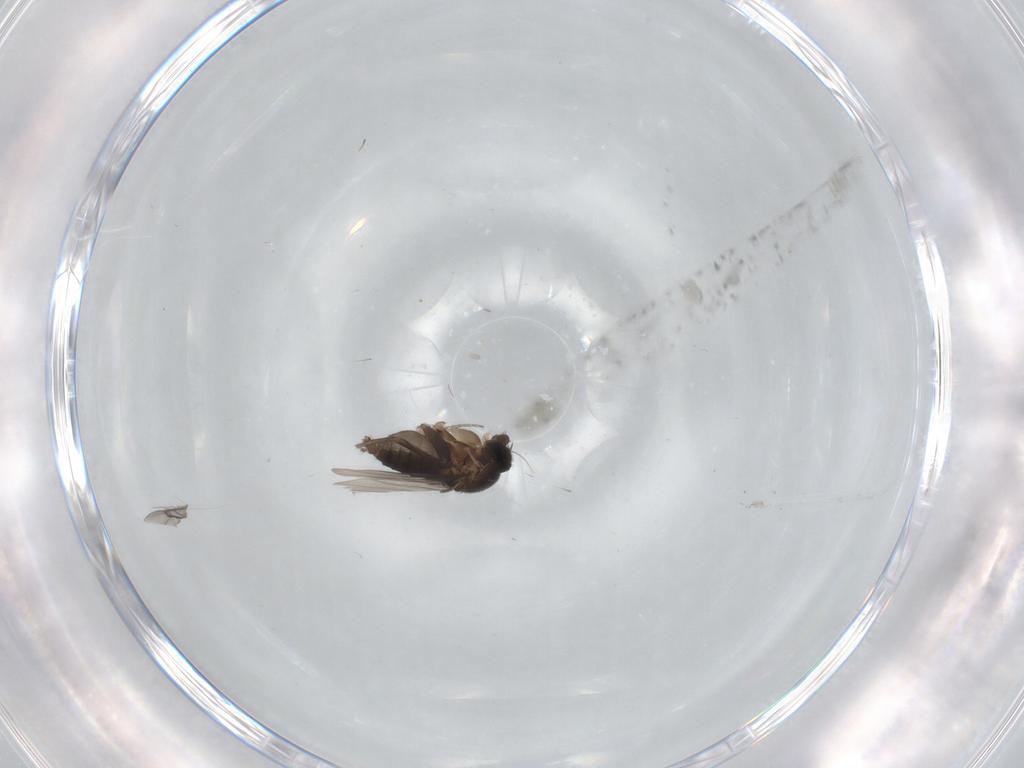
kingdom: Animalia
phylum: Arthropoda
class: Insecta
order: Diptera
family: Phoridae
